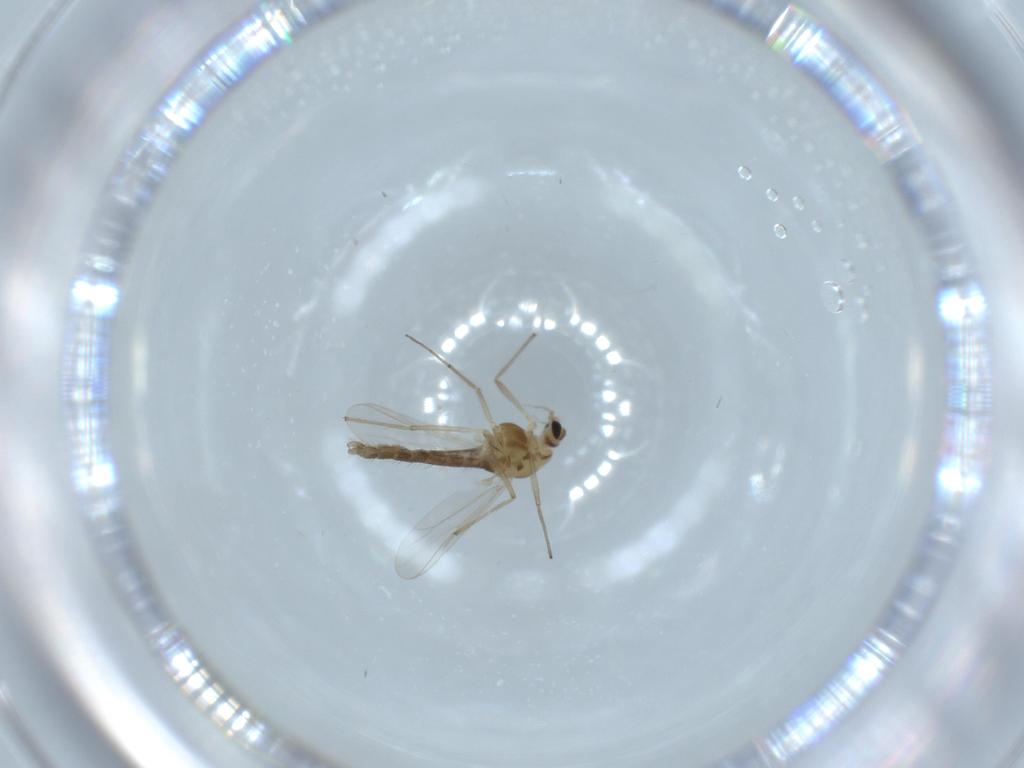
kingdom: Animalia
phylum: Arthropoda
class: Insecta
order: Diptera
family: Chironomidae
